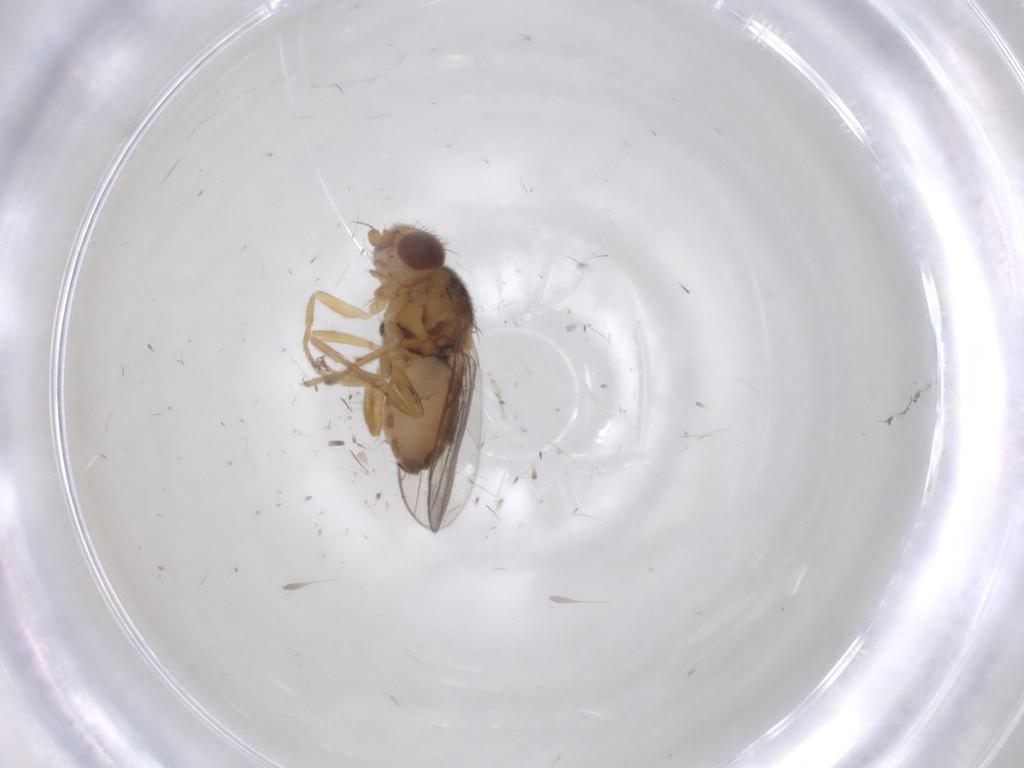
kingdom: Animalia
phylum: Arthropoda
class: Insecta
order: Diptera
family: Chloropidae
